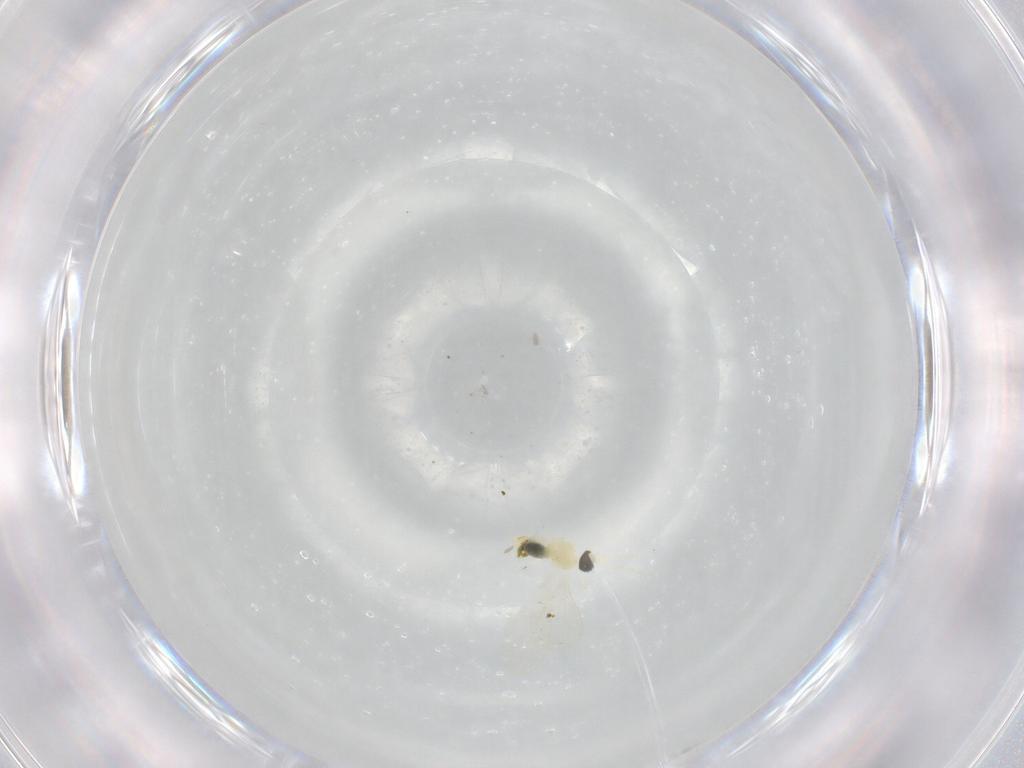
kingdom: Animalia
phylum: Arthropoda
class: Insecta
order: Diptera
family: Cecidomyiidae
